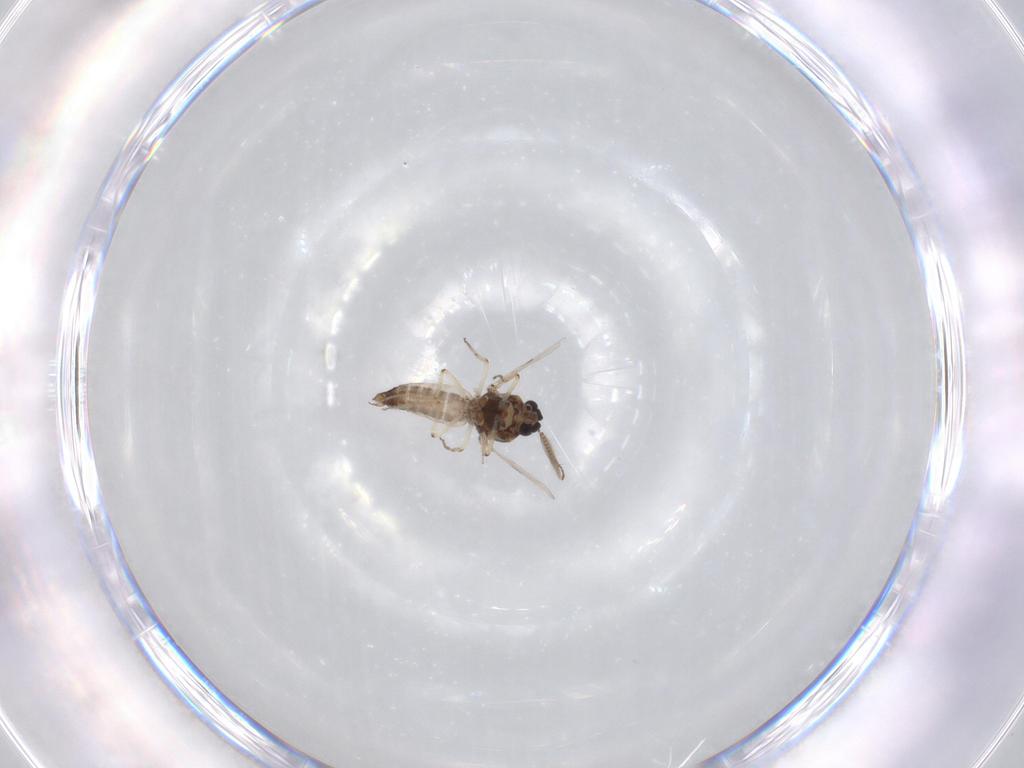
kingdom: Animalia
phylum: Arthropoda
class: Insecta
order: Diptera
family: Ceratopogonidae
